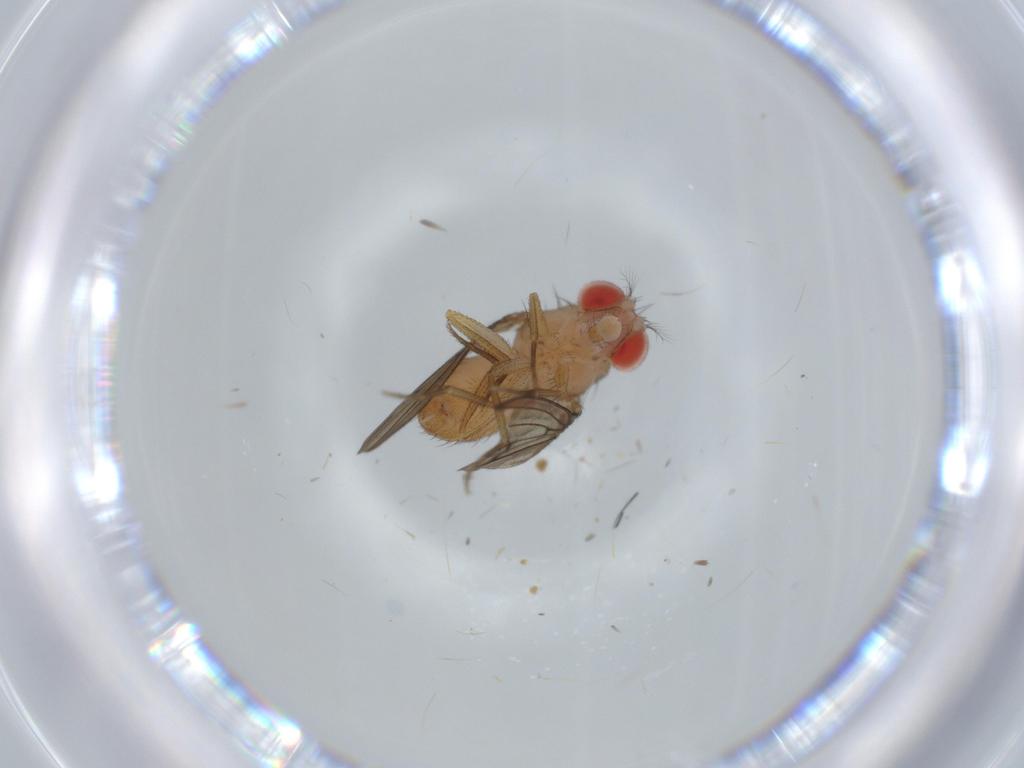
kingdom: Animalia
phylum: Arthropoda
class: Insecta
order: Diptera
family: Drosophilidae
